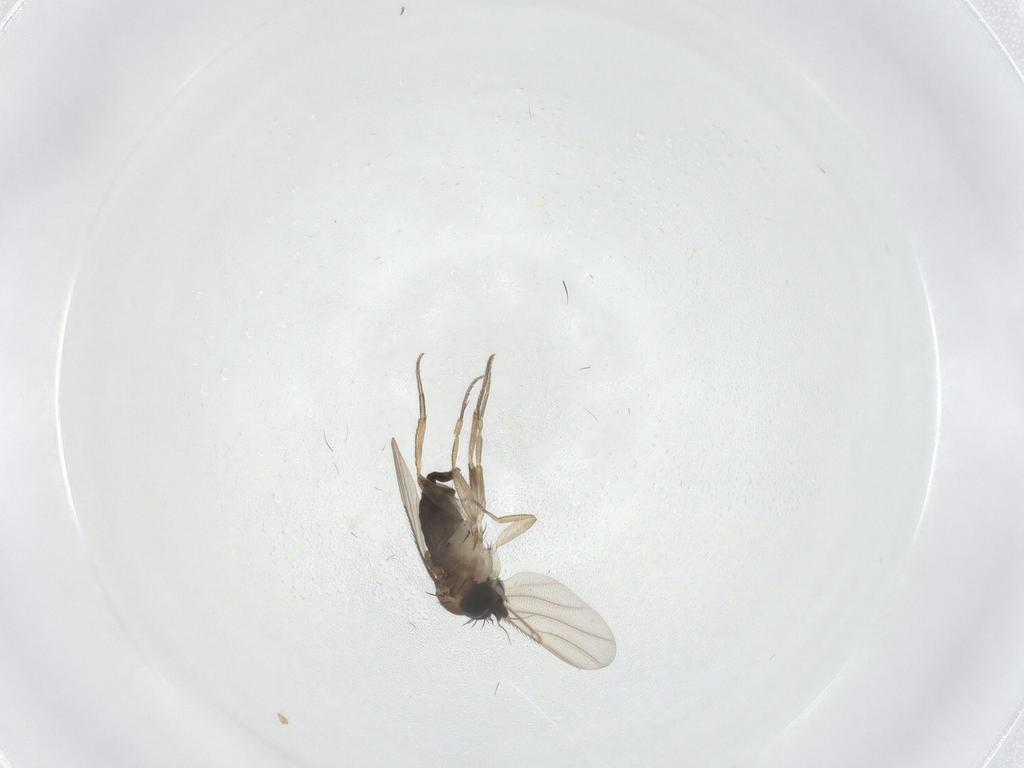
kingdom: Animalia
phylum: Arthropoda
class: Insecta
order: Diptera
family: Phoridae
